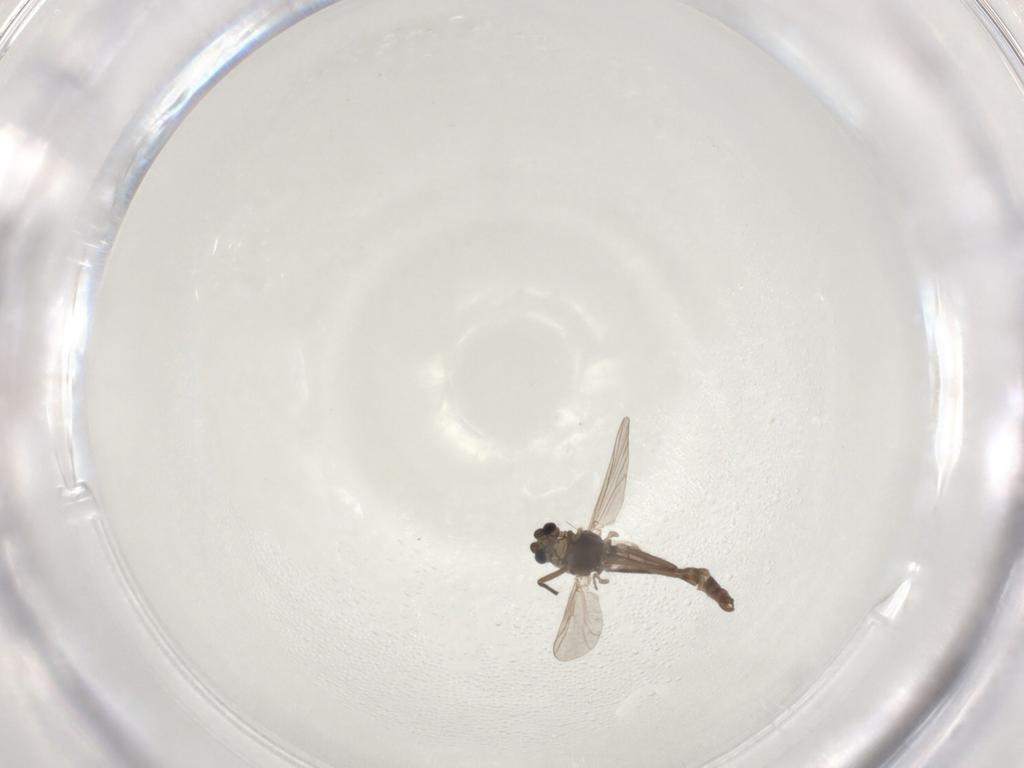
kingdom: Animalia
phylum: Arthropoda
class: Insecta
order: Diptera
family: Chironomidae
